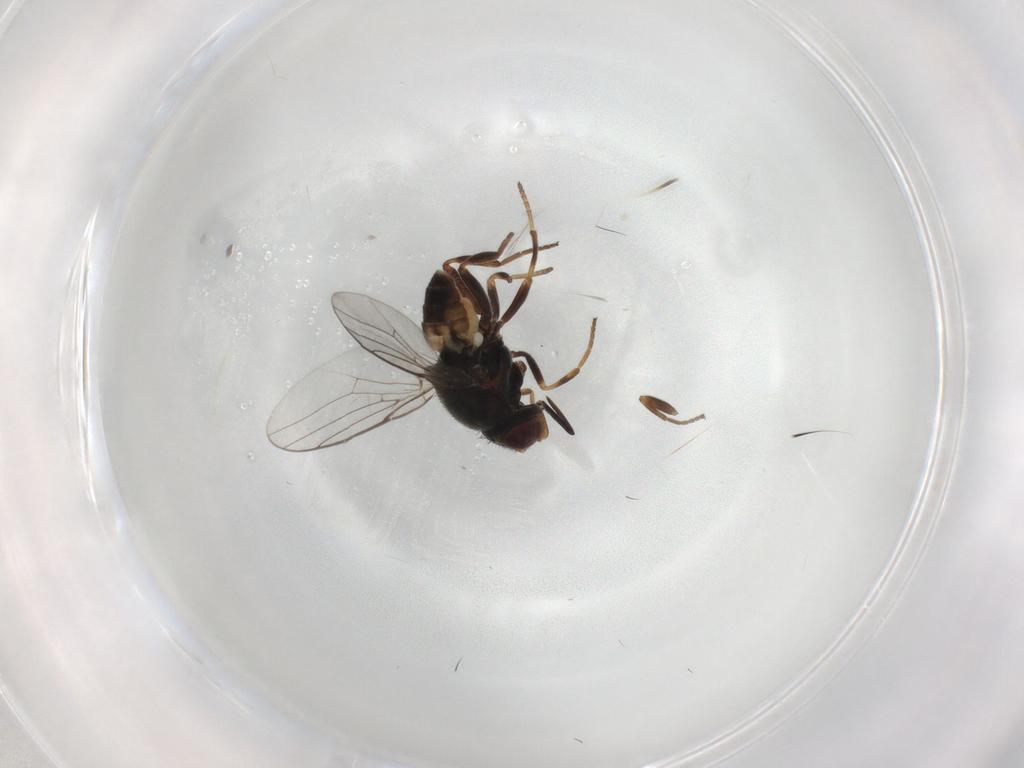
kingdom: Animalia
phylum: Arthropoda
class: Insecta
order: Diptera
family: Chloropidae
